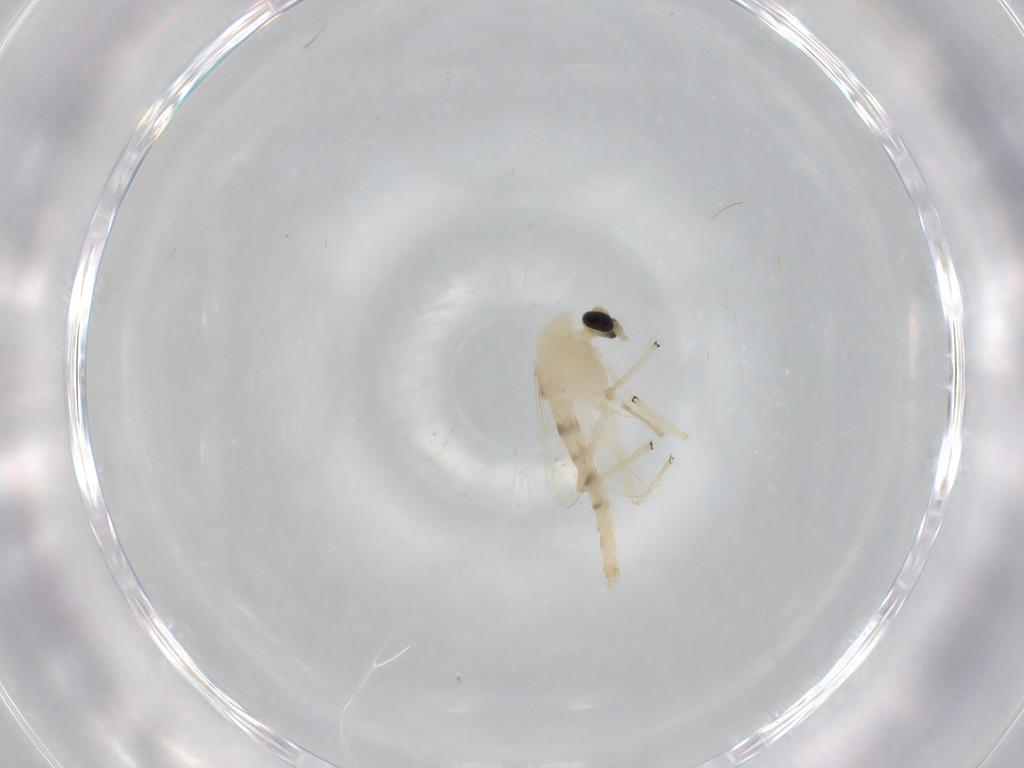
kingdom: Animalia
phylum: Arthropoda
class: Insecta
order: Diptera
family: Chironomidae
